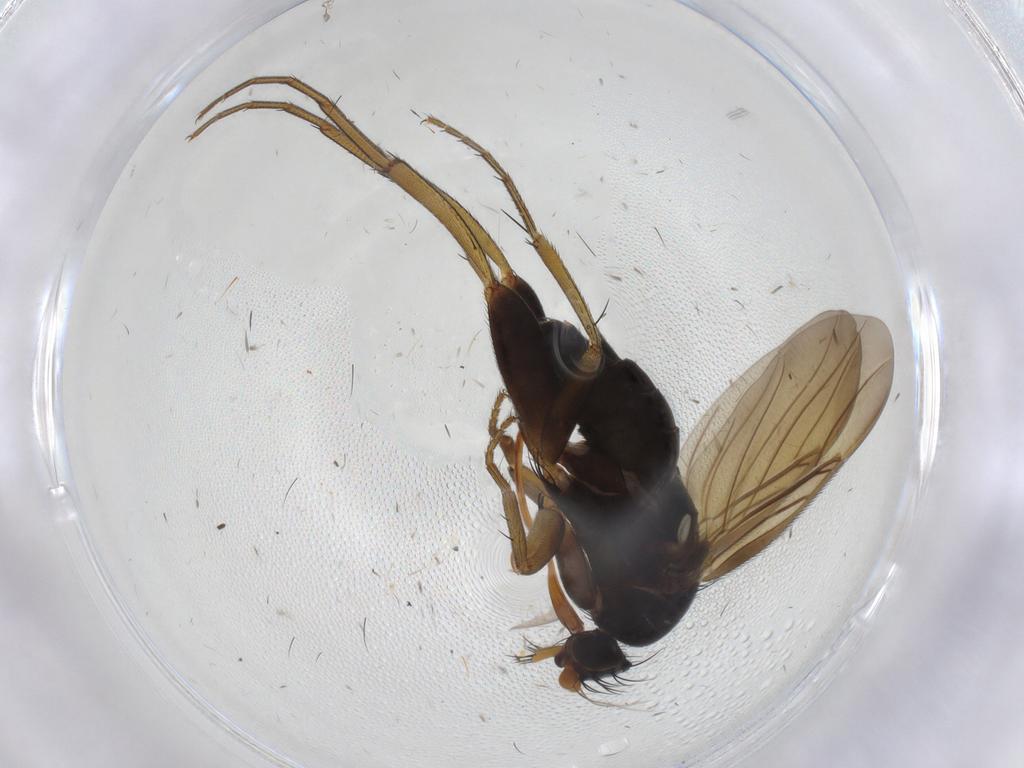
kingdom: Animalia
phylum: Arthropoda
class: Insecta
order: Diptera
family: Phoridae
